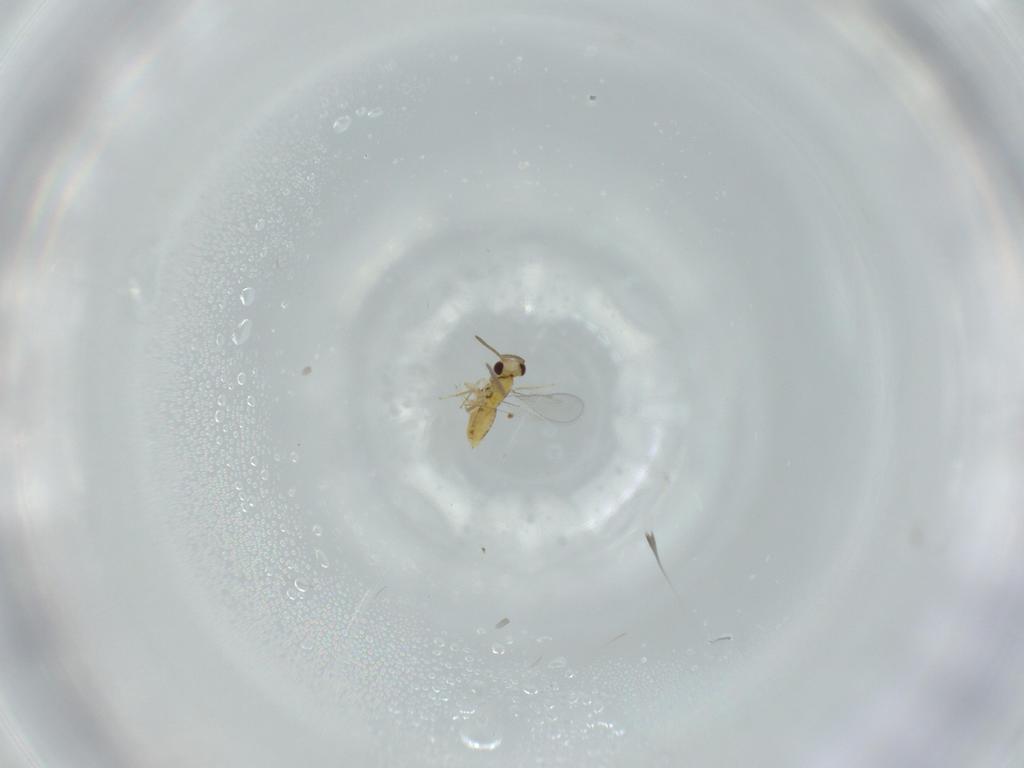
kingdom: Animalia
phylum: Arthropoda
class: Insecta
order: Hymenoptera
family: Aphelinidae
